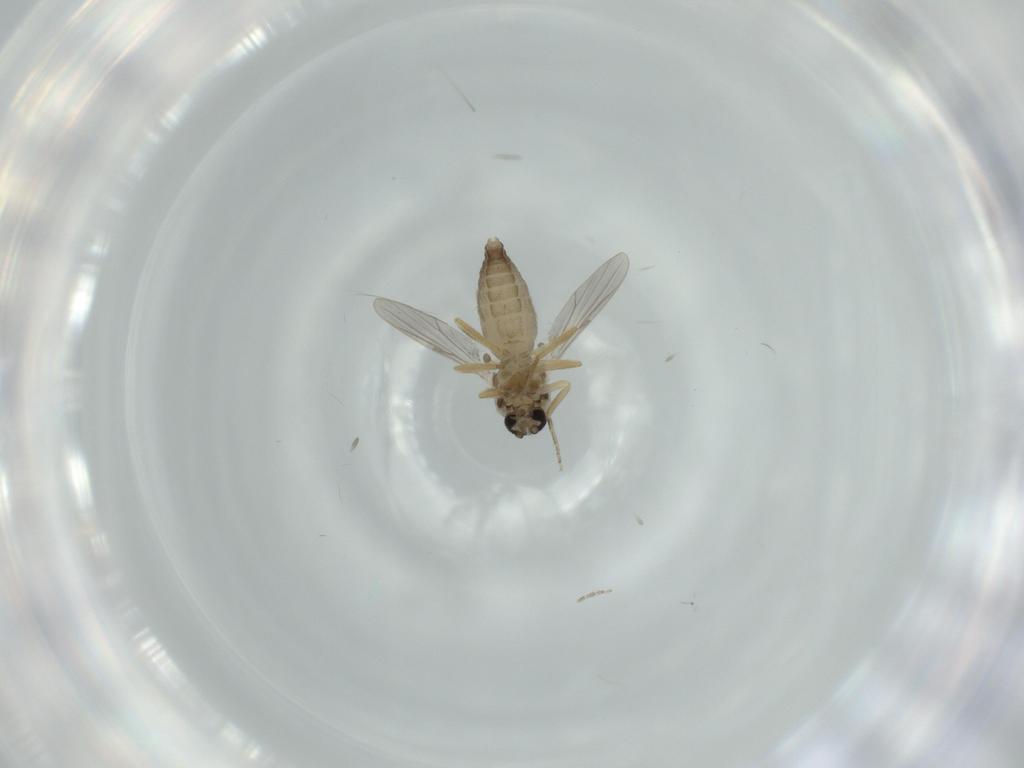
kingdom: Animalia
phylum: Arthropoda
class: Insecta
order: Diptera
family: Ceratopogonidae
